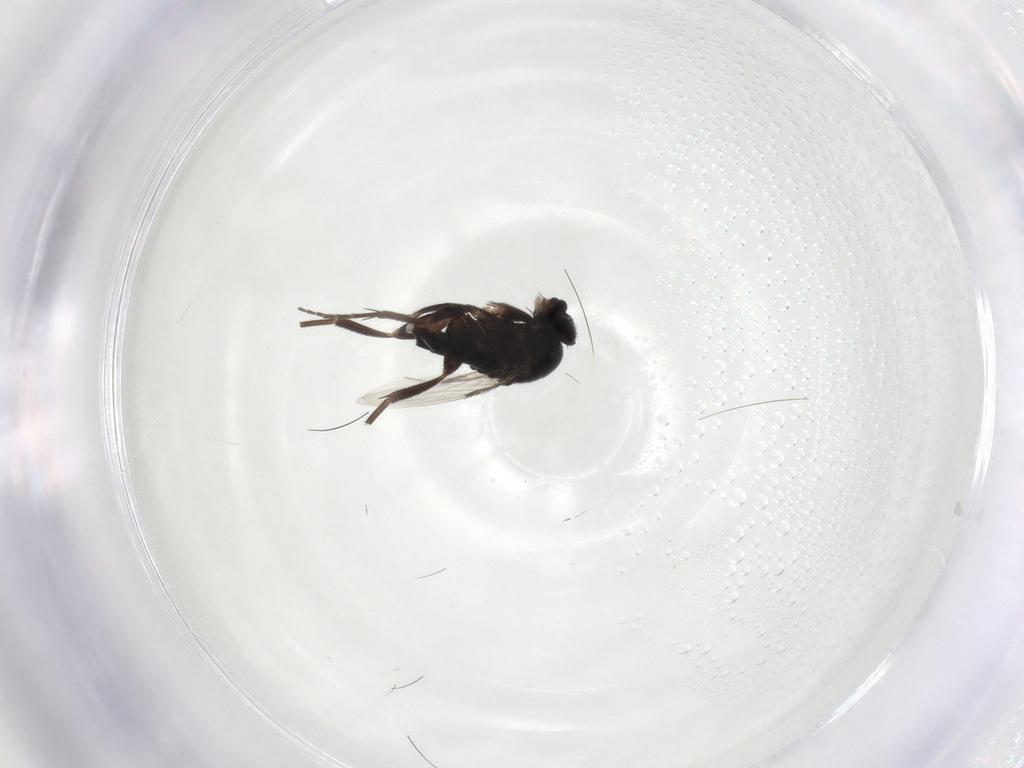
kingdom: Animalia
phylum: Arthropoda
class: Insecta
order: Diptera
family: Phoridae
